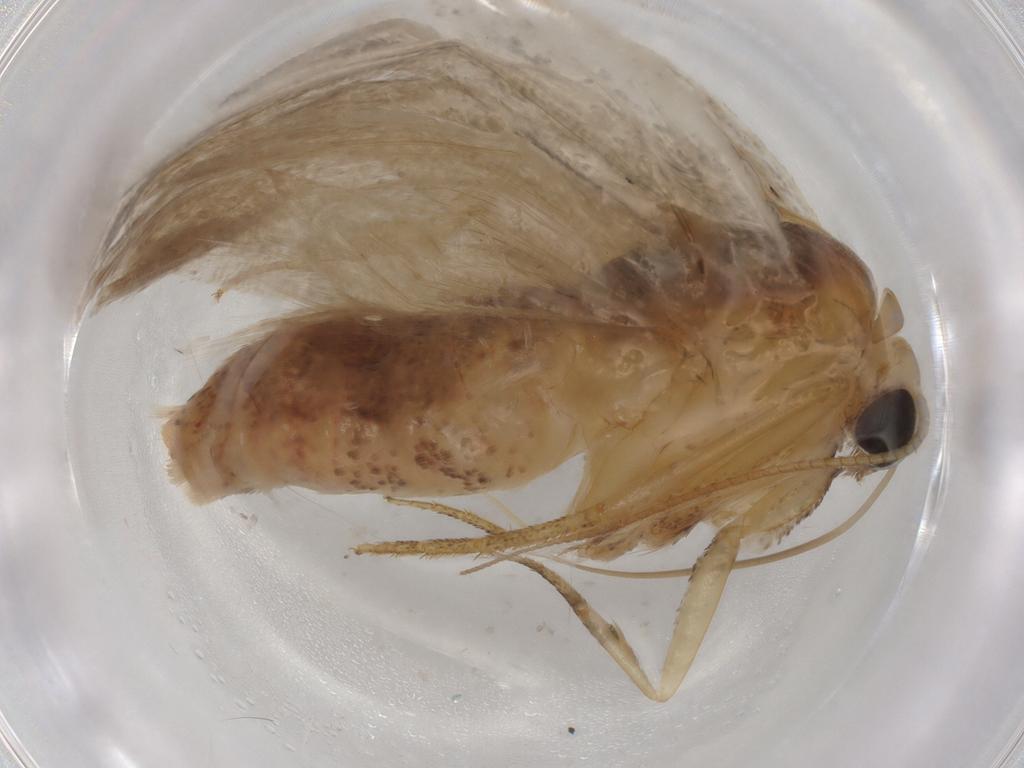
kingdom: Animalia
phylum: Arthropoda
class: Insecta
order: Lepidoptera
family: Nolidae
